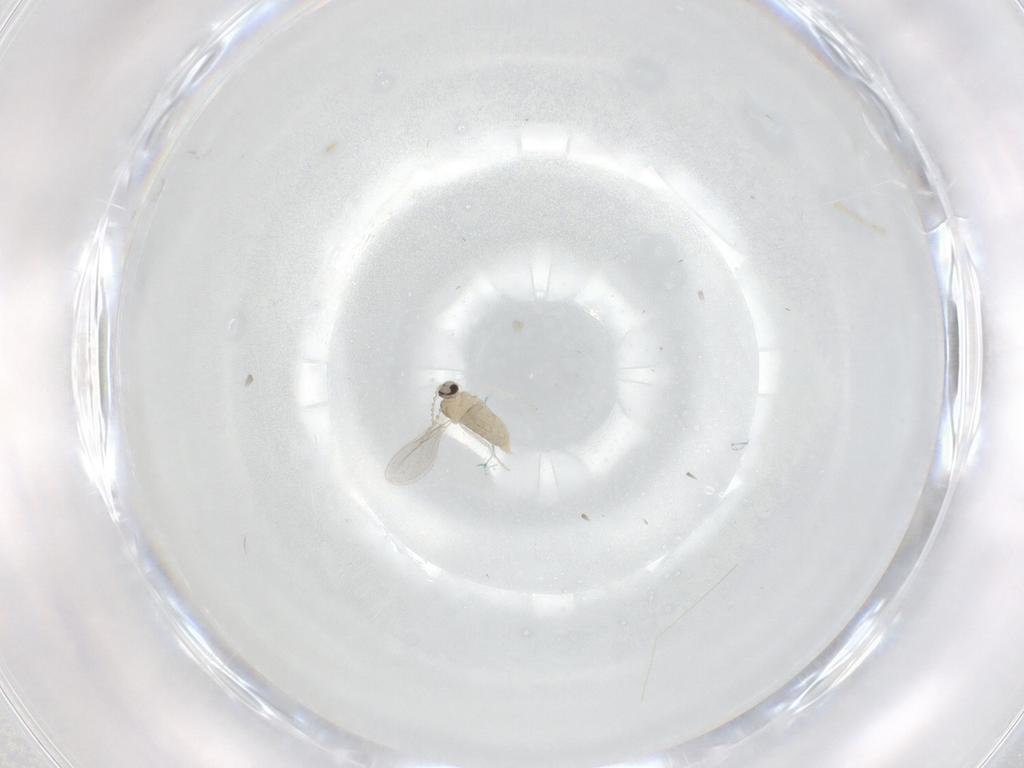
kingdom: Animalia
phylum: Arthropoda
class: Insecta
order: Diptera
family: Cecidomyiidae
